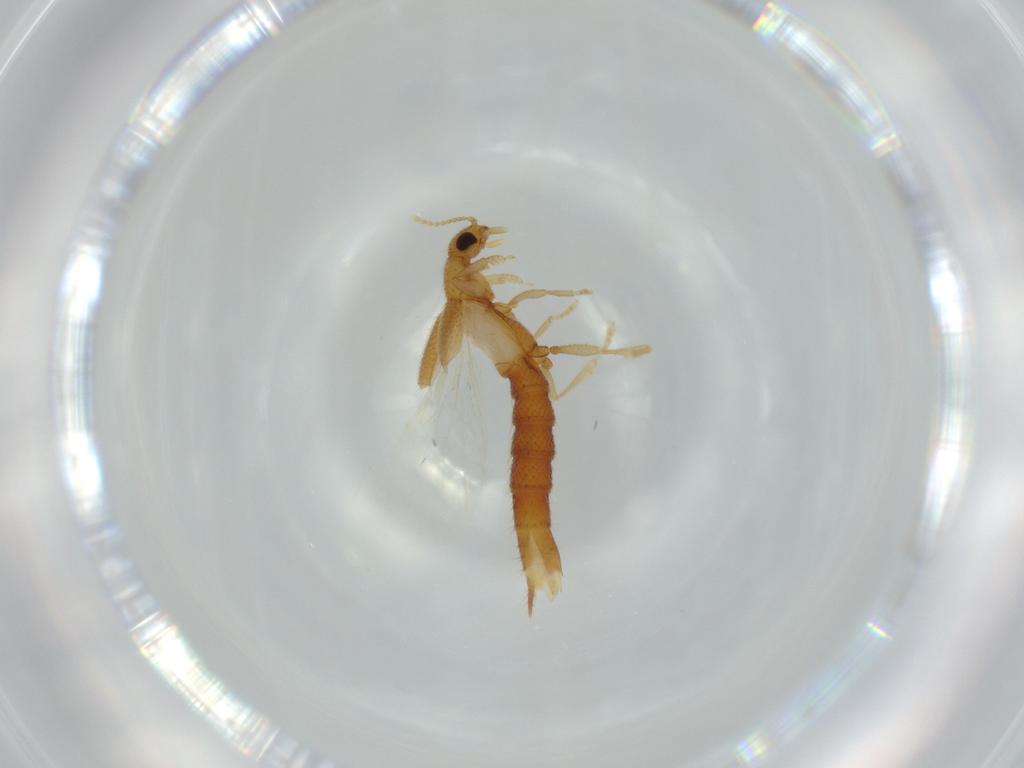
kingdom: Animalia
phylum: Arthropoda
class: Insecta
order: Coleoptera
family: Staphylinidae
